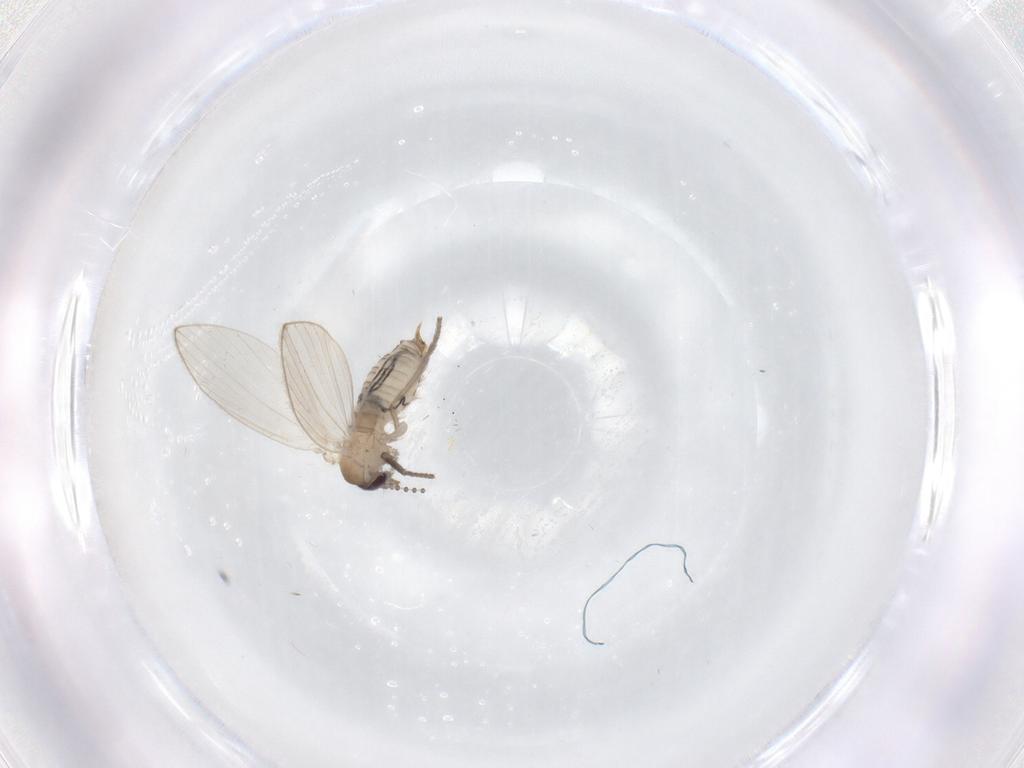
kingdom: Animalia
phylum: Arthropoda
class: Insecta
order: Diptera
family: Psychodidae
